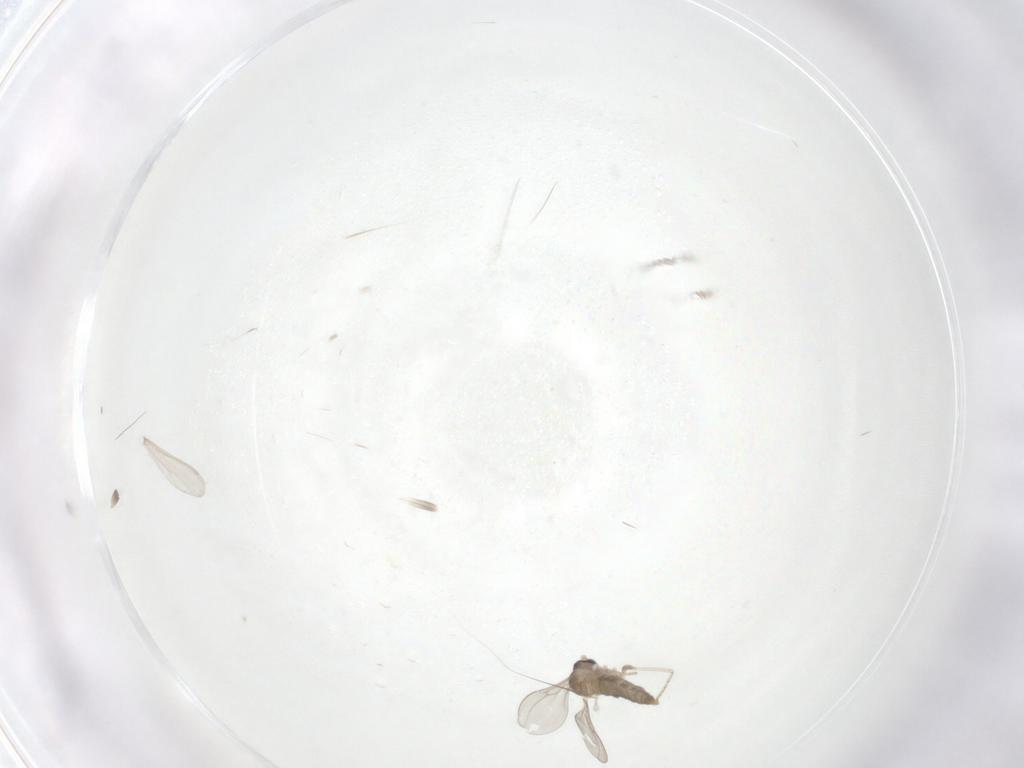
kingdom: Animalia
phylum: Arthropoda
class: Insecta
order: Diptera
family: Cecidomyiidae
